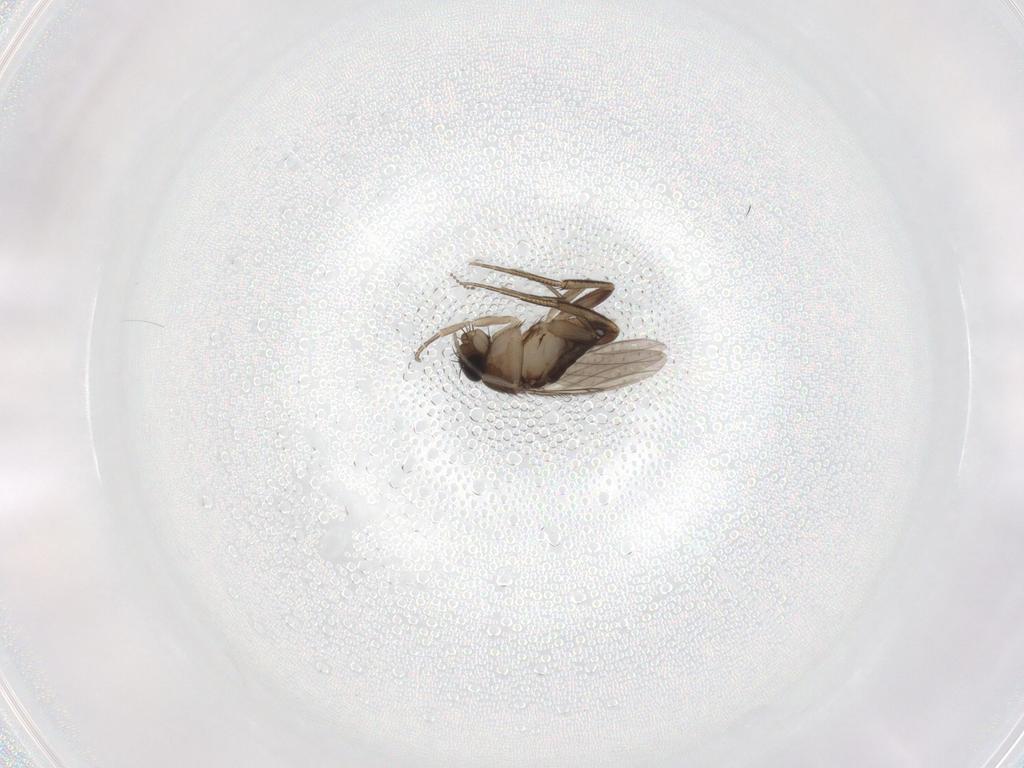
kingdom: Animalia
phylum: Arthropoda
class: Insecta
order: Diptera
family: Phoridae
